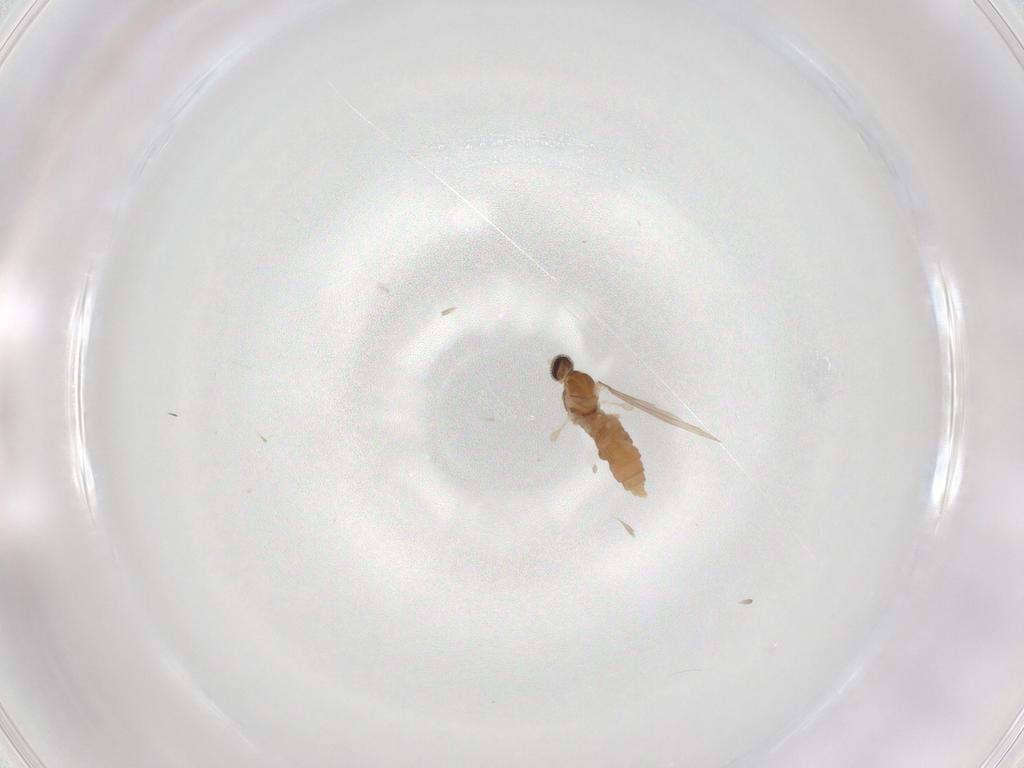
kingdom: Animalia
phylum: Arthropoda
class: Insecta
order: Diptera
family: Cecidomyiidae
